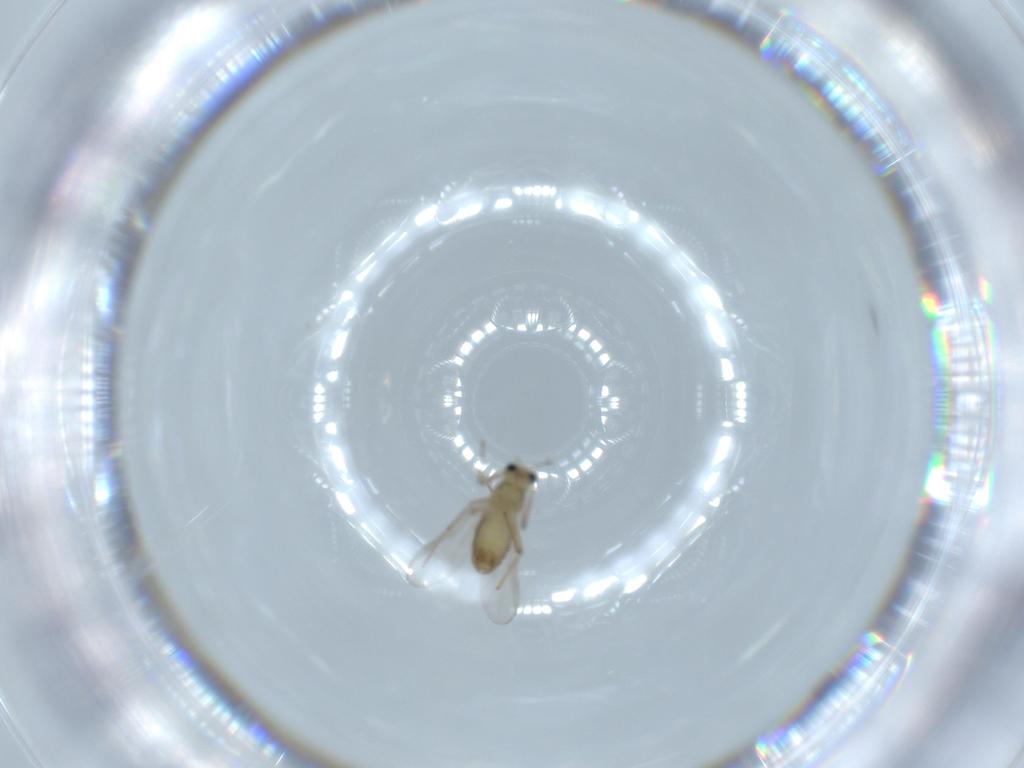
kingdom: Animalia
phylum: Arthropoda
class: Insecta
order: Diptera
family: Chironomidae
